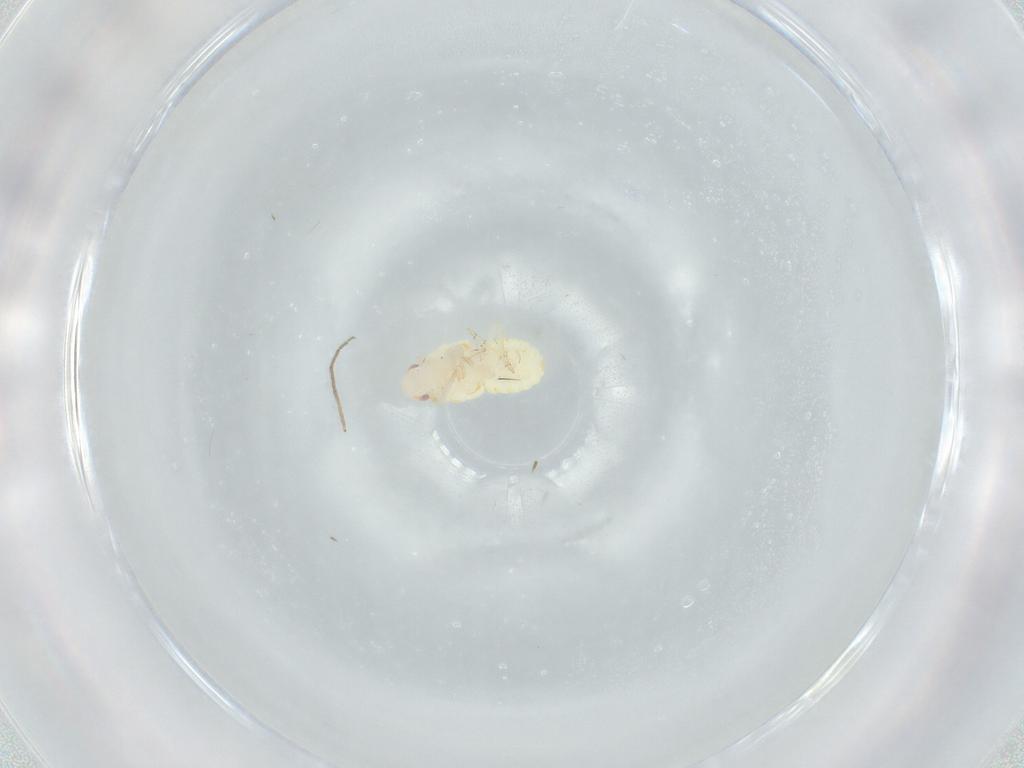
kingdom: Animalia
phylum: Arthropoda
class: Insecta
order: Hemiptera
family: Flatidae
